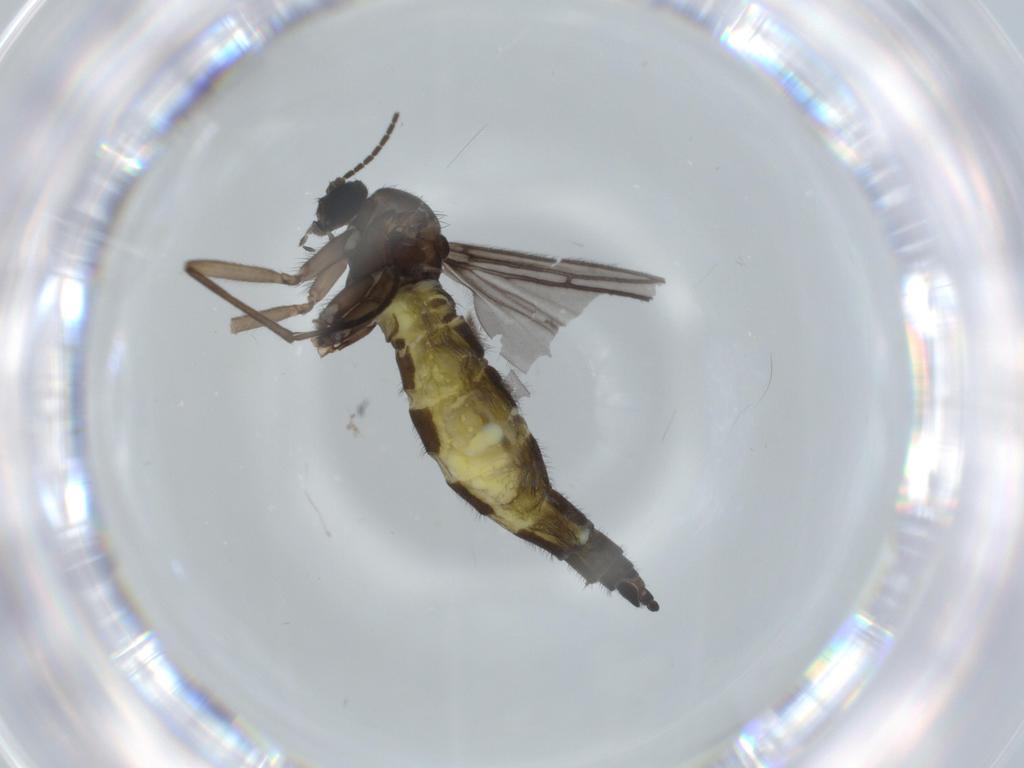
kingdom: Animalia
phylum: Arthropoda
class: Insecta
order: Diptera
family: Sciaridae
